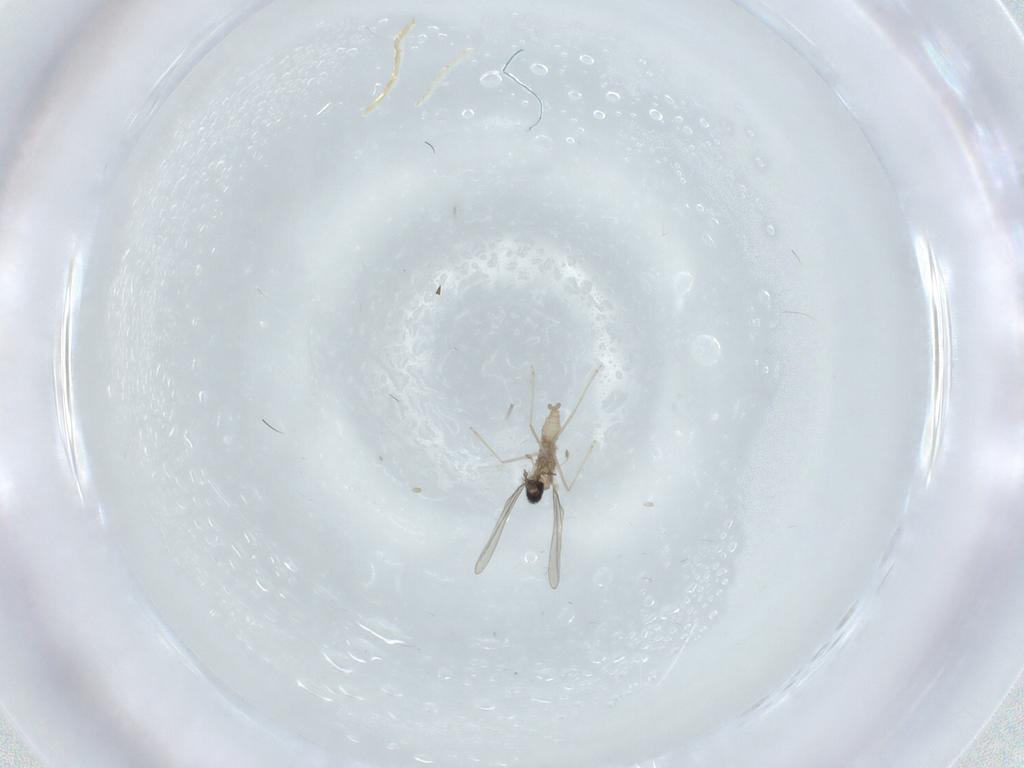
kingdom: Animalia
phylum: Arthropoda
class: Insecta
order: Diptera
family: Cecidomyiidae
